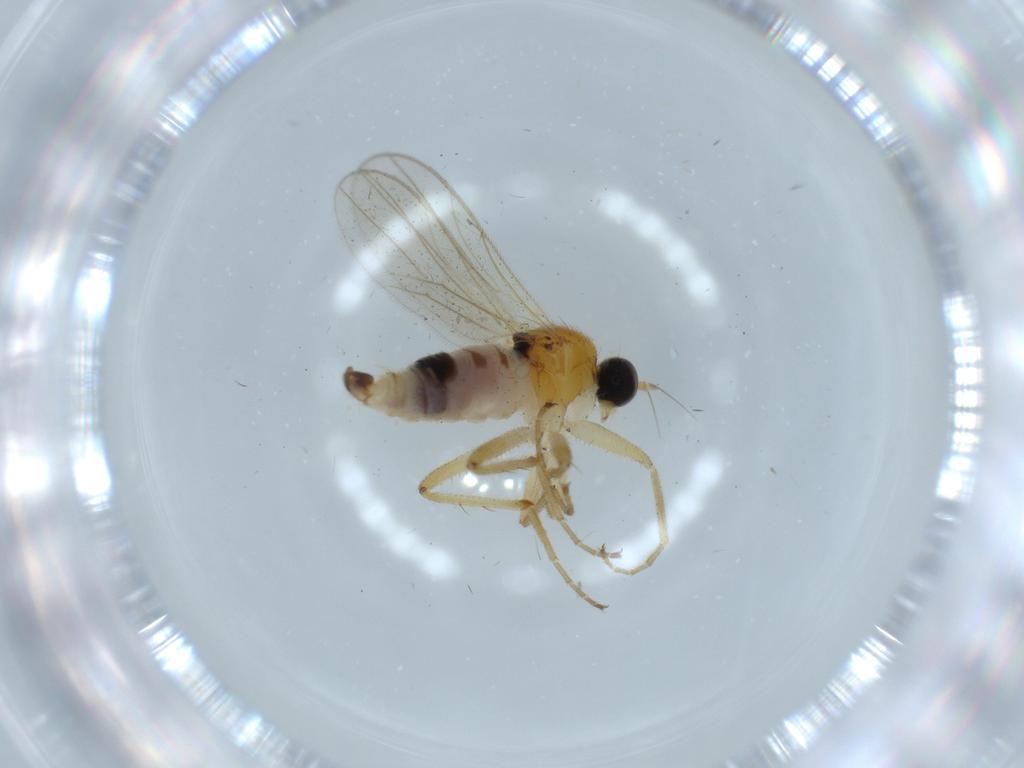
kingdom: Animalia
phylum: Arthropoda
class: Insecta
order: Diptera
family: Hybotidae
